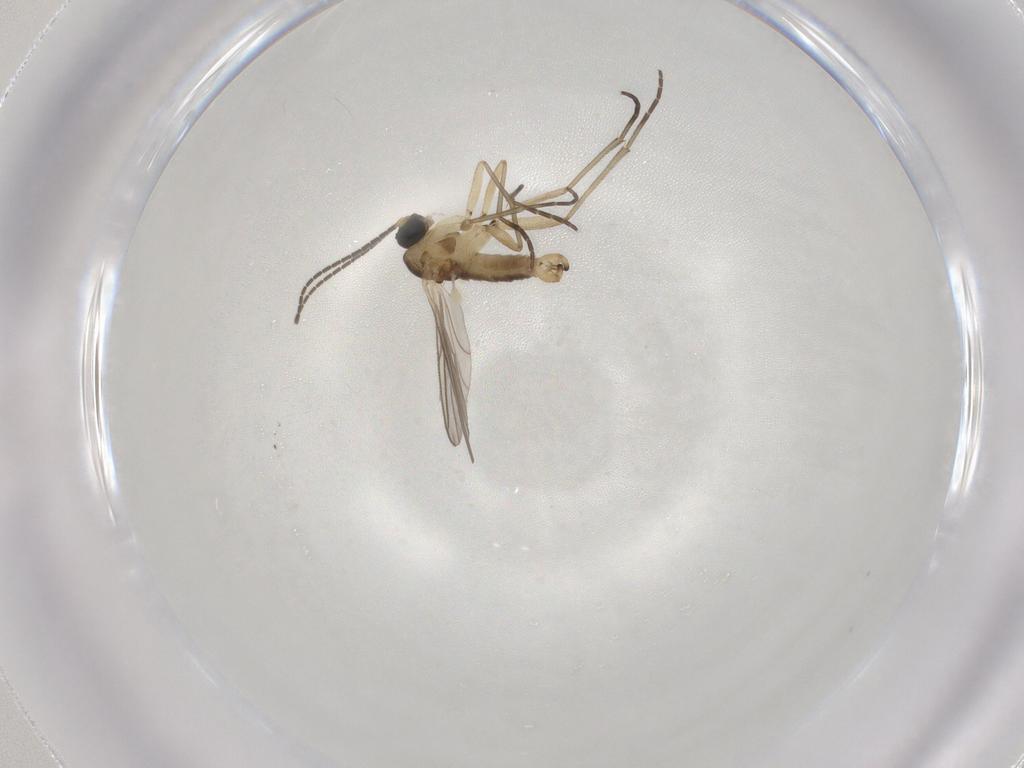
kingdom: Animalia
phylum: Arthropoda
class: Insecta
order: Diptera
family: Sciaridae
